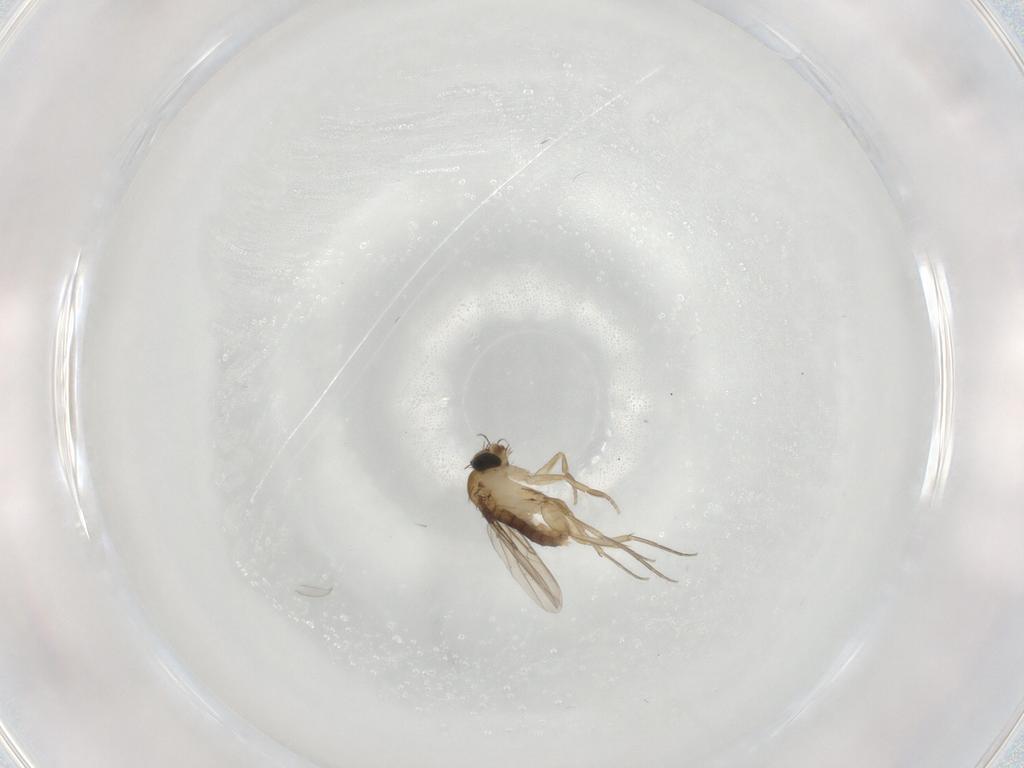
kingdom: Animalia
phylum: Arthropoda
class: Insecta
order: Diptera
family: Phoridae
